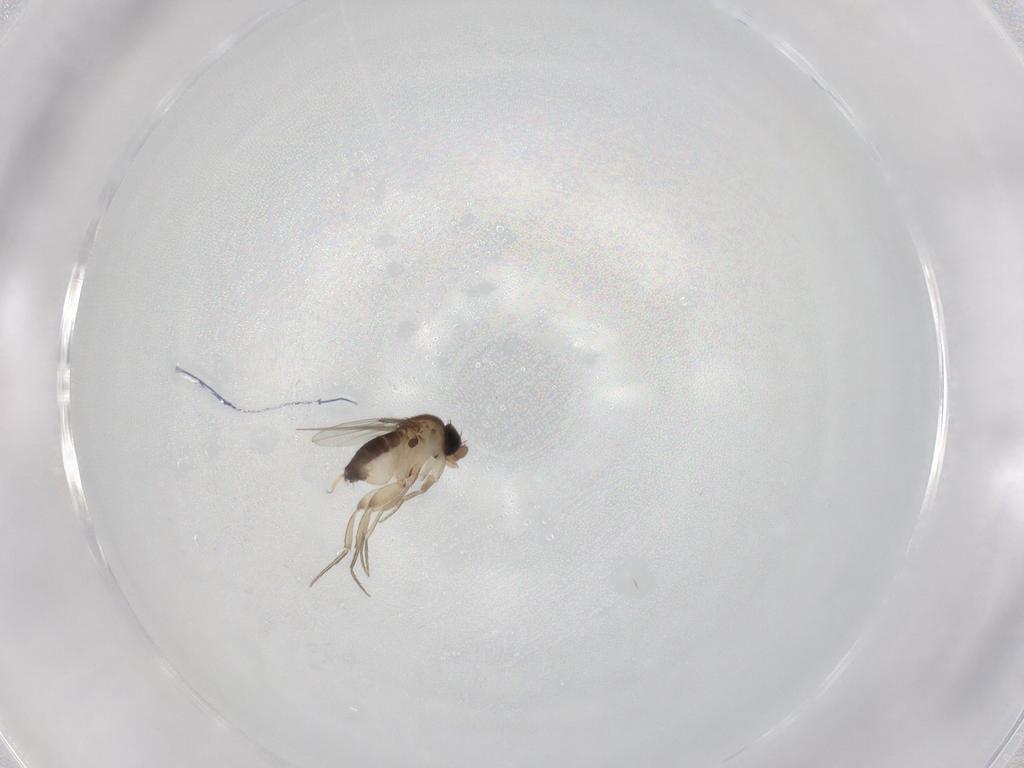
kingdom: Animalia
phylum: Arthropoda
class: Insecta
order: Diptera
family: Phoridae
